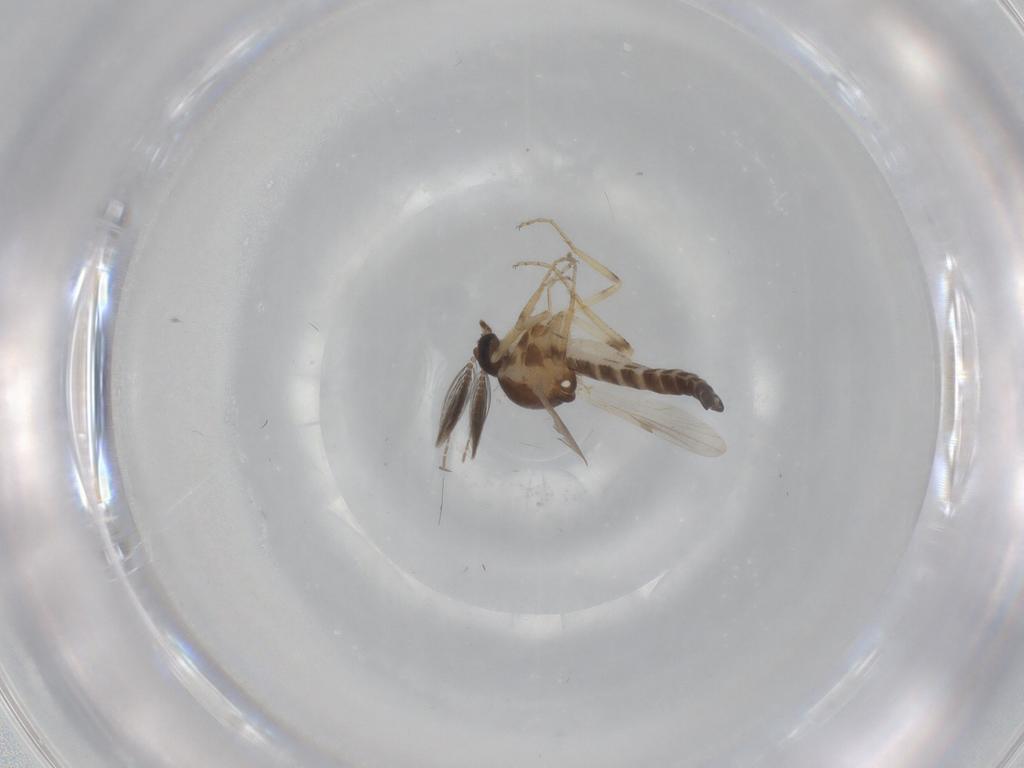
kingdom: Animalia
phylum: Arthropoda
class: Insecta
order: Diptera
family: Ceratopogonidae
